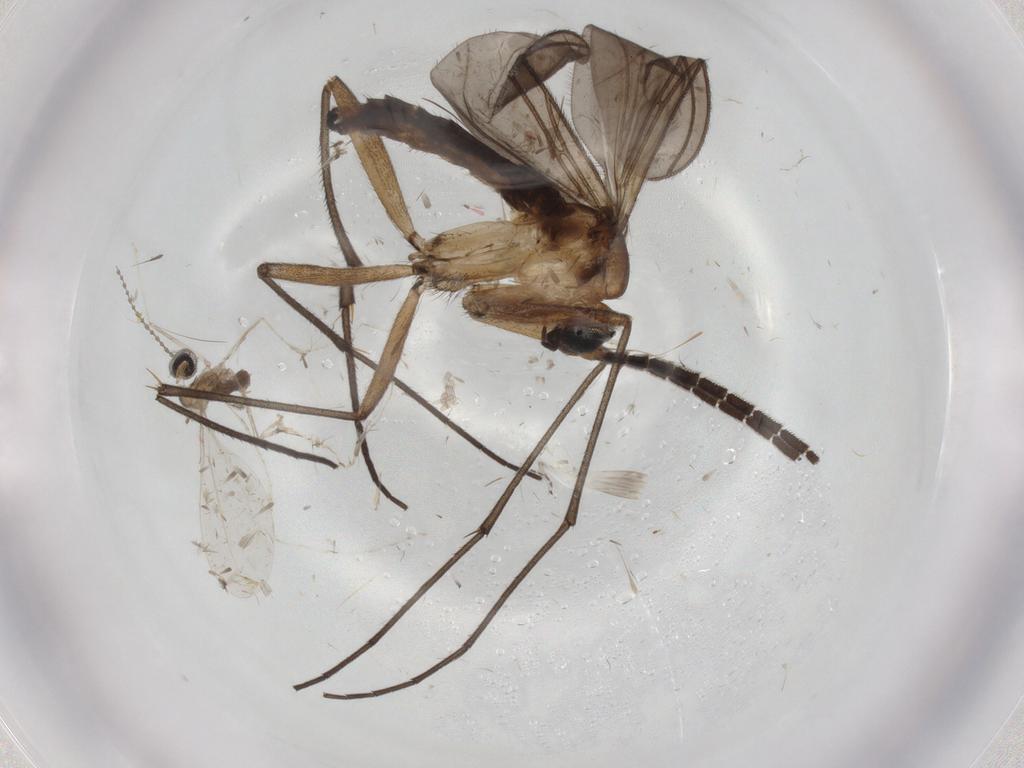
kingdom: Animalia
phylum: Arthropoda
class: Insecta
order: Diptera
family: Cecidomyiidae
